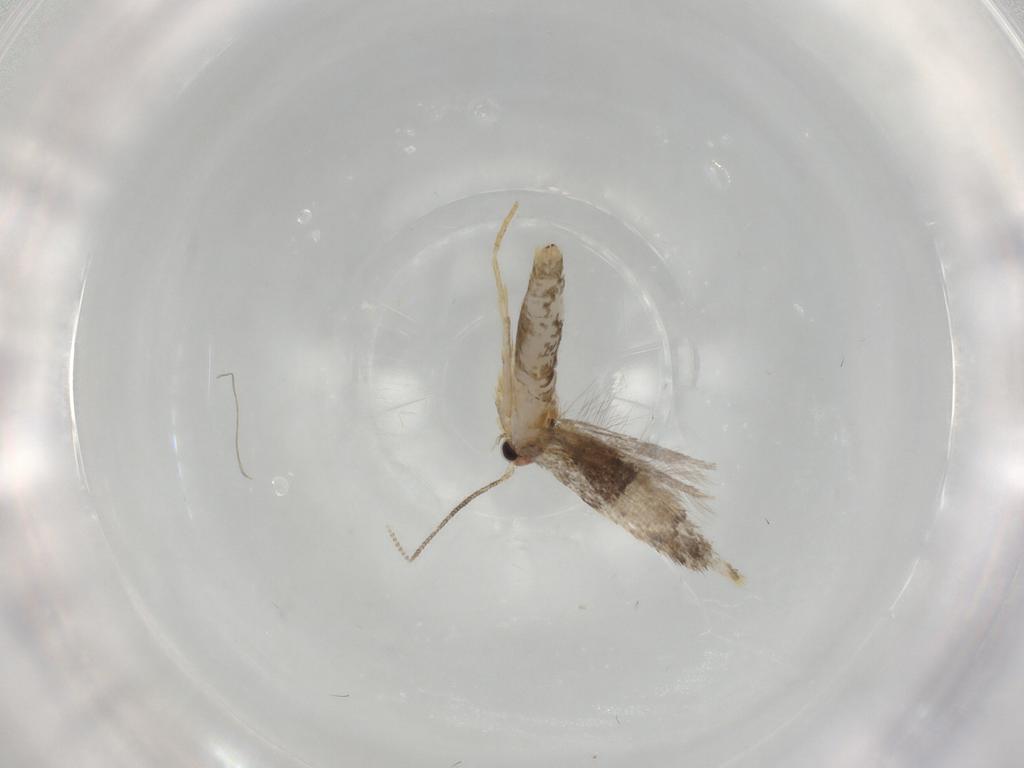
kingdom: Animalia
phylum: Arthropoda
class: Insecta
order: Lepidoptera
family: Tineidae
